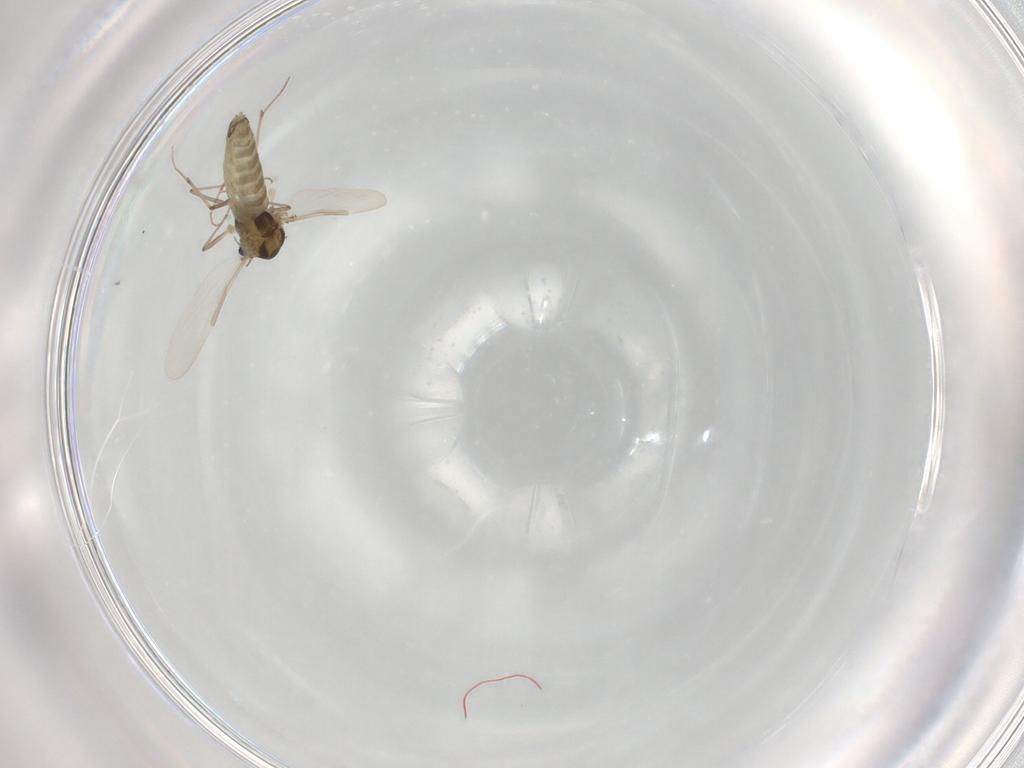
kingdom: Animalia
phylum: Arthropoda
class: Insecta
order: Diptera
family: Chironomidae
